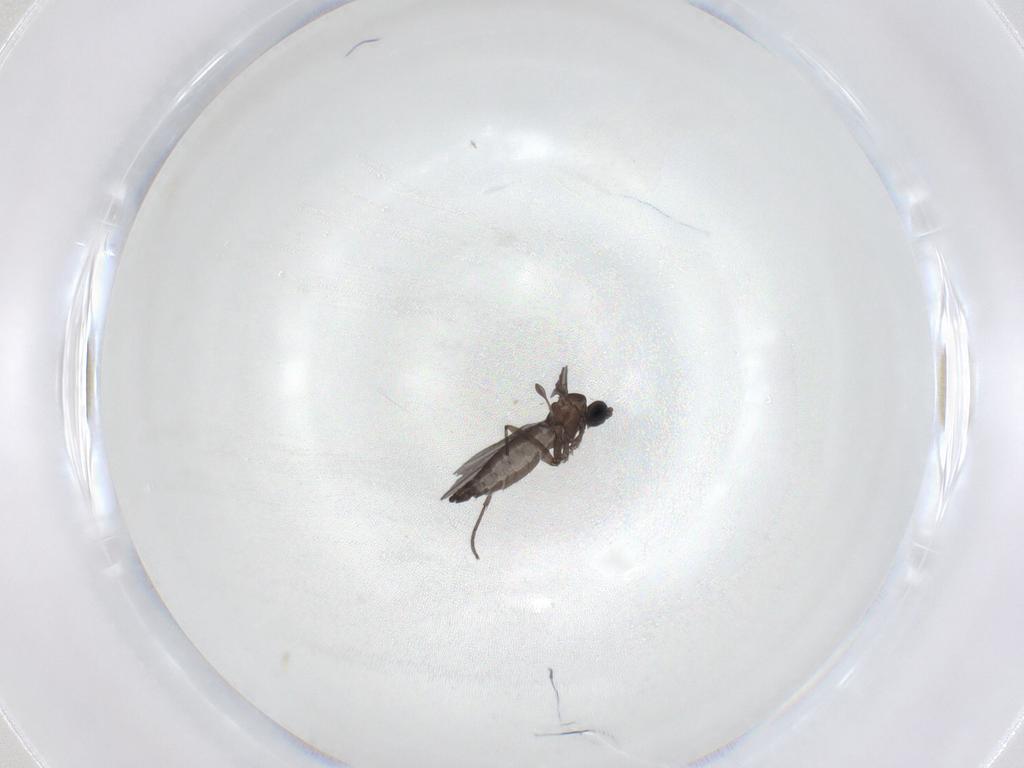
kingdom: Animalia
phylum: Arthropoda
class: Insecta
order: Diptera
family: Sciaridae
